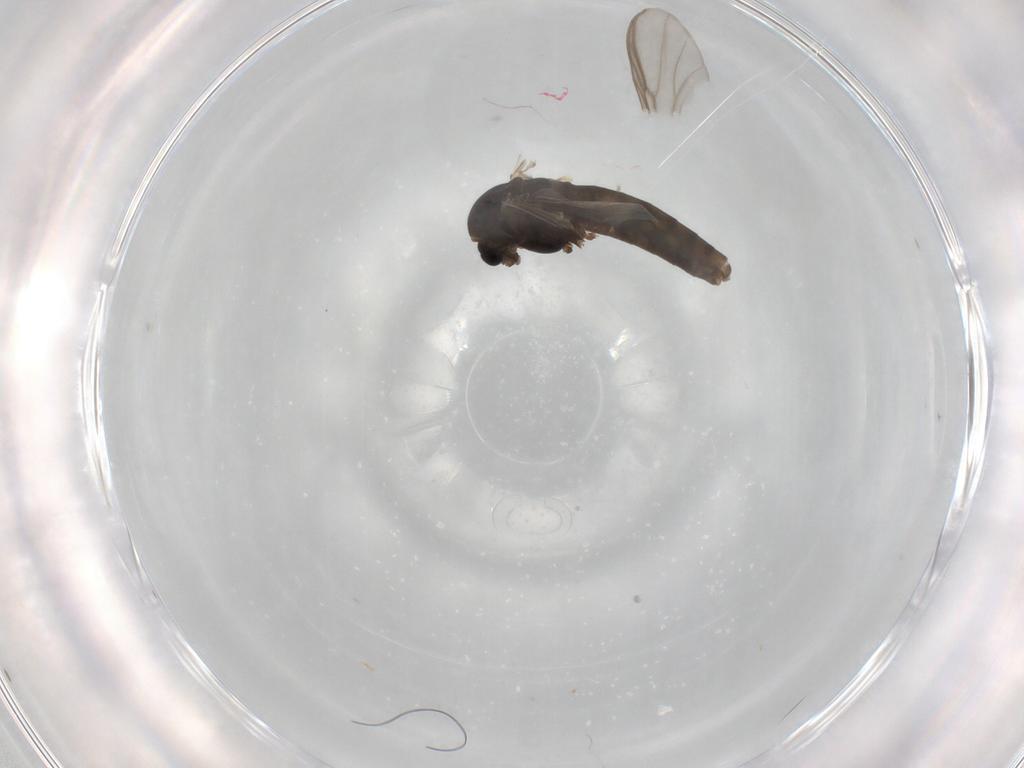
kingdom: Animalia
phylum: Arthropoda
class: Insecta
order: Diptera
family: Chironomidae
